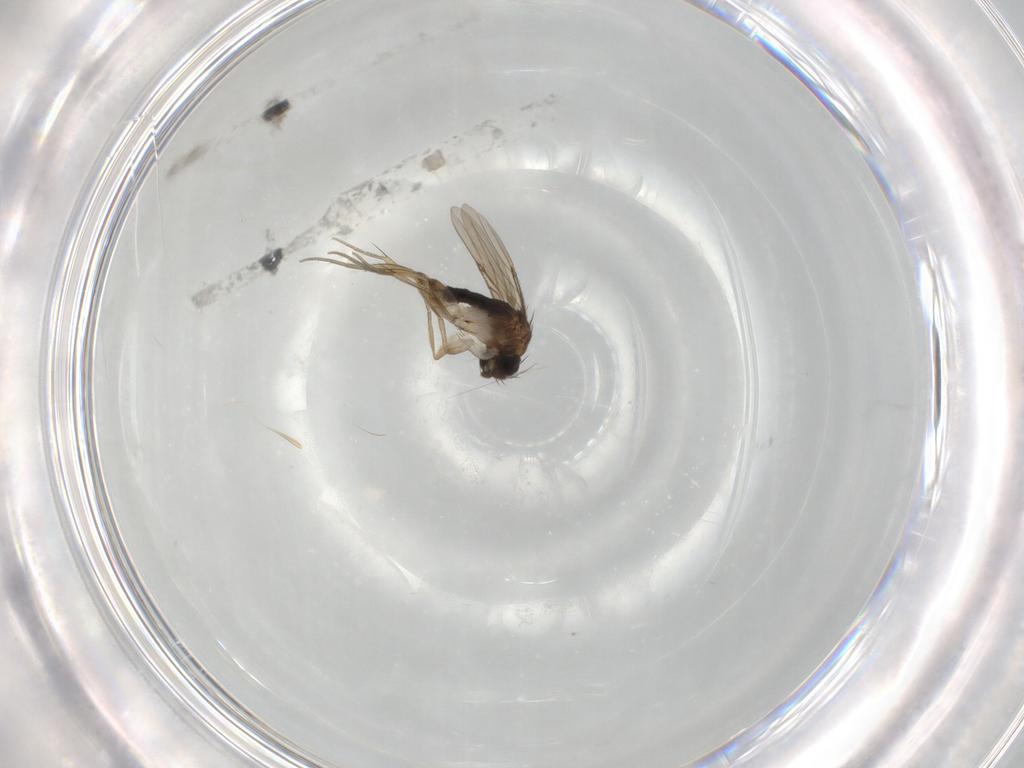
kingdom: Animalia
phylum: Arthropoda
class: Insecta
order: Diptera
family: Phoridae
